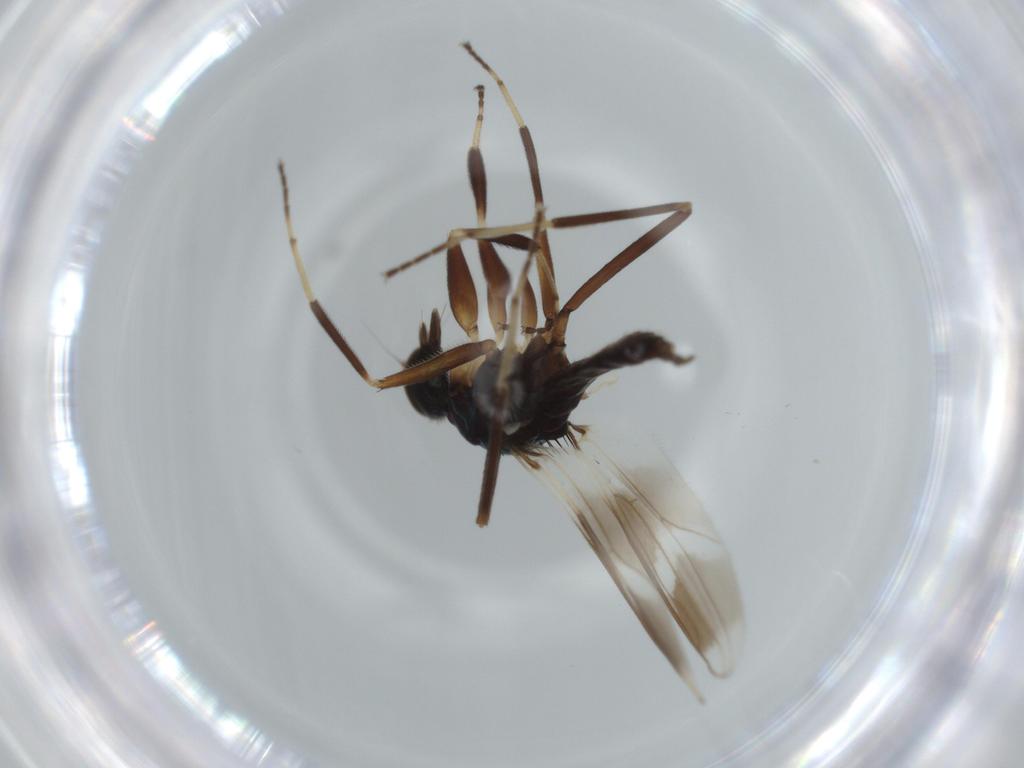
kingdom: Animalia
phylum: Arthropoda
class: Insecta
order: Diptera
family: Hybotidae
